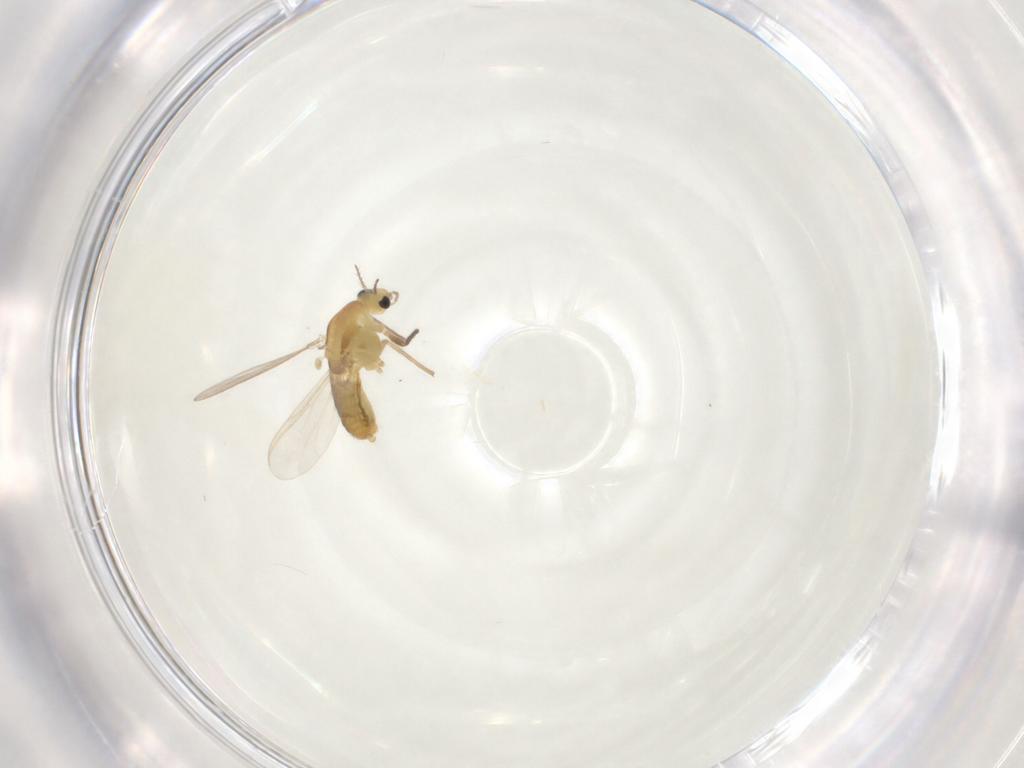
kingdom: Animalia
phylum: Arthropoda
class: Insecta
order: Diptera
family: Chironomidae
